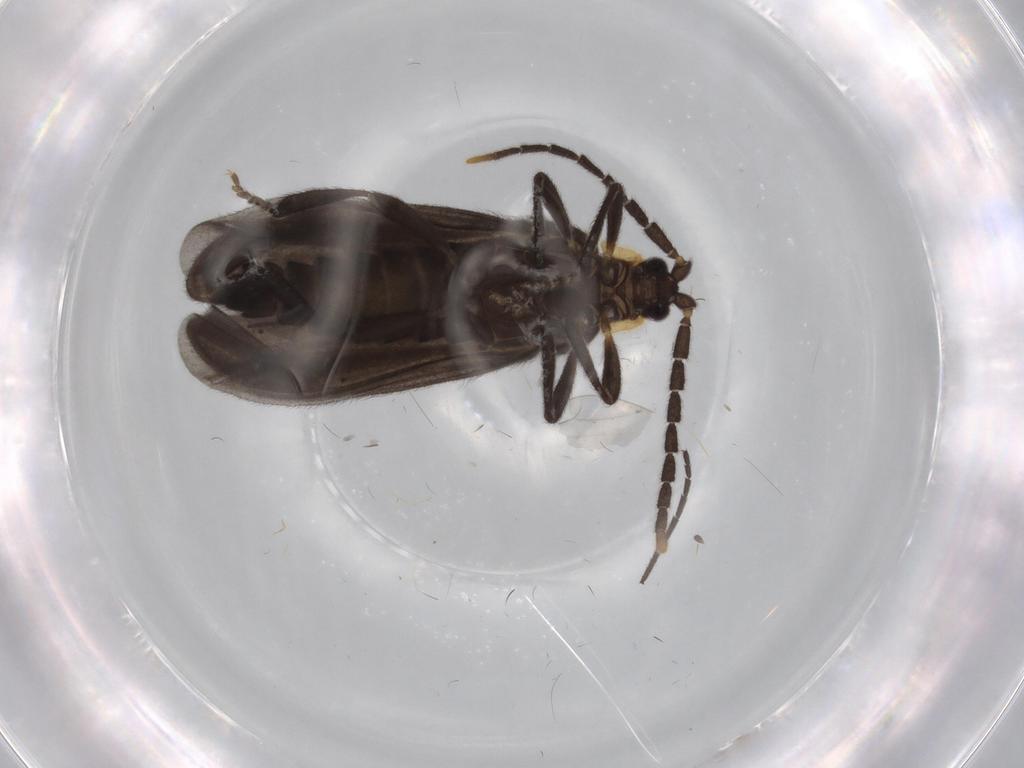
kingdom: Animalia
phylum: Arthropoda
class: Insecta
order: Coleoptera
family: Lycidae
